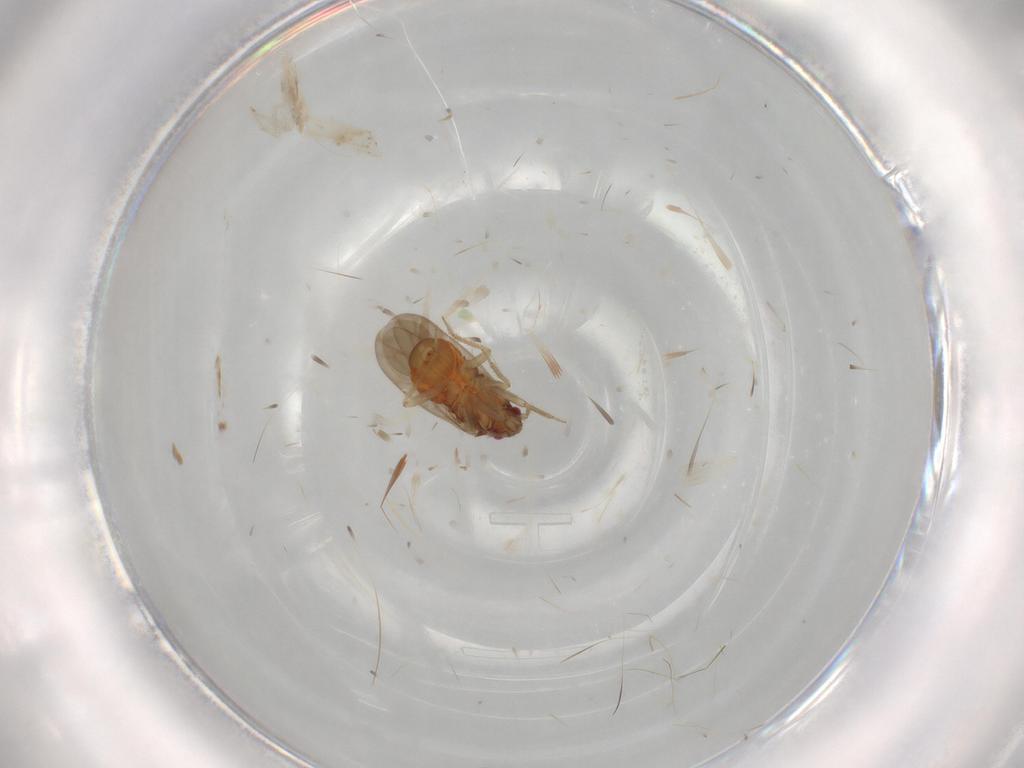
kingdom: Animalia
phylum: Arthropoda
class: Insecta
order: Hemiptera
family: Ceratocombidae
